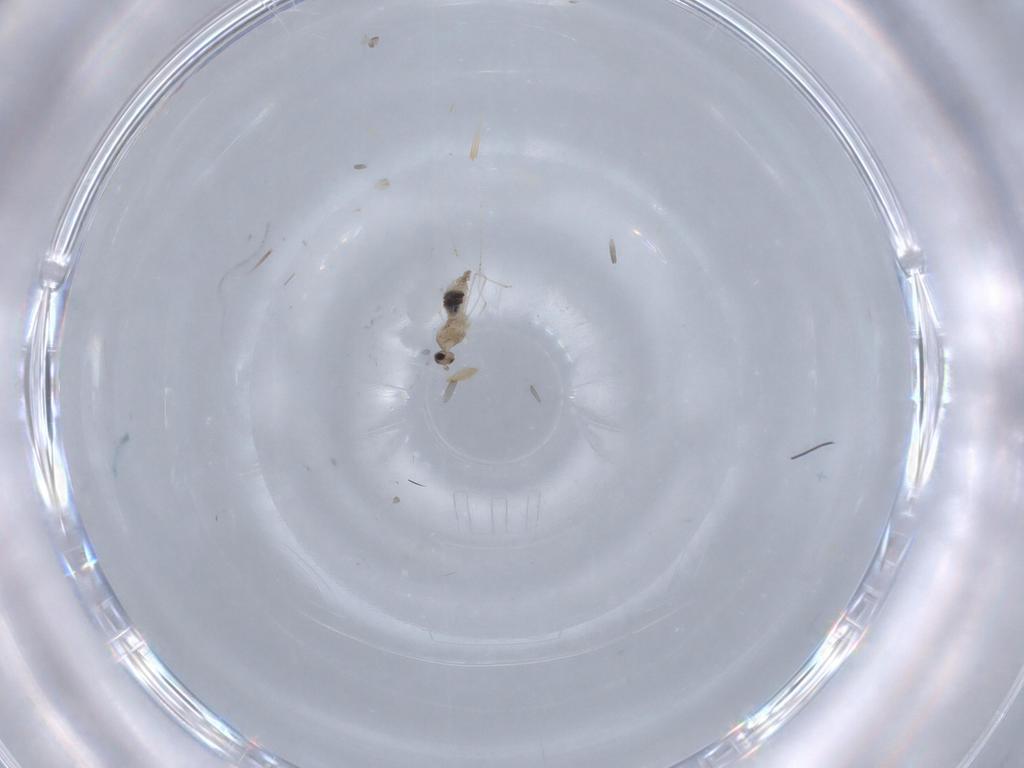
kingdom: Animalia
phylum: Arthropoda
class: Insecta
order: Diptera
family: Cecidomyiidae
